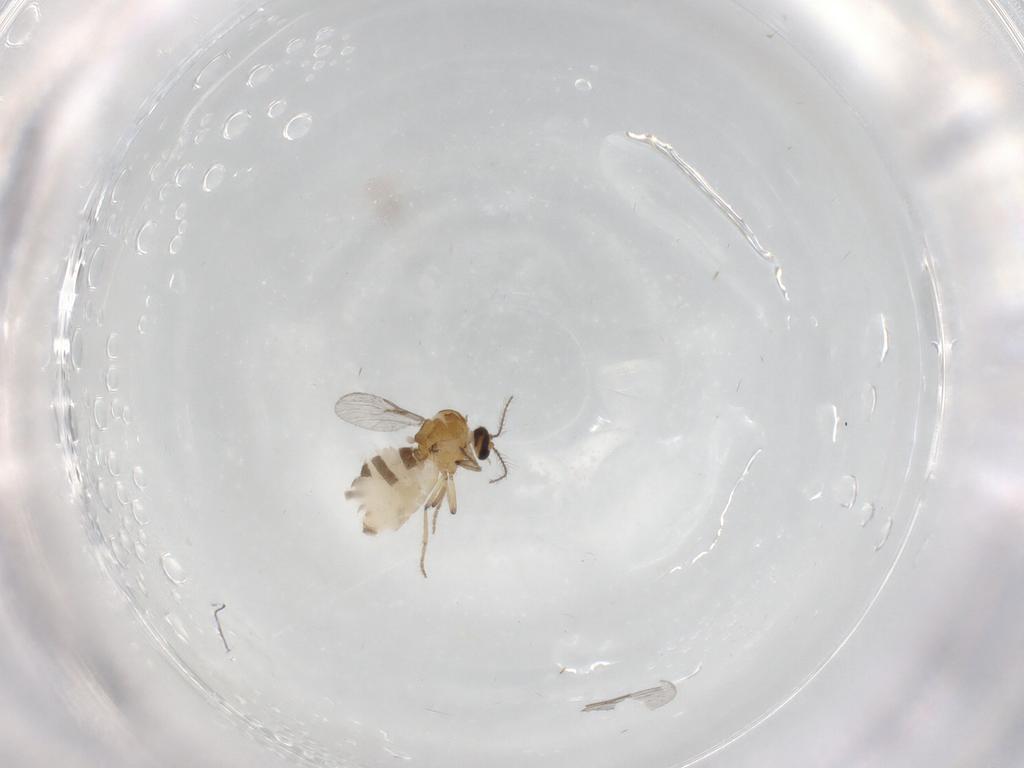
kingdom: Animalia
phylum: Arthropoda
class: Insecta
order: Diptera
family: Ceratopogonidae
